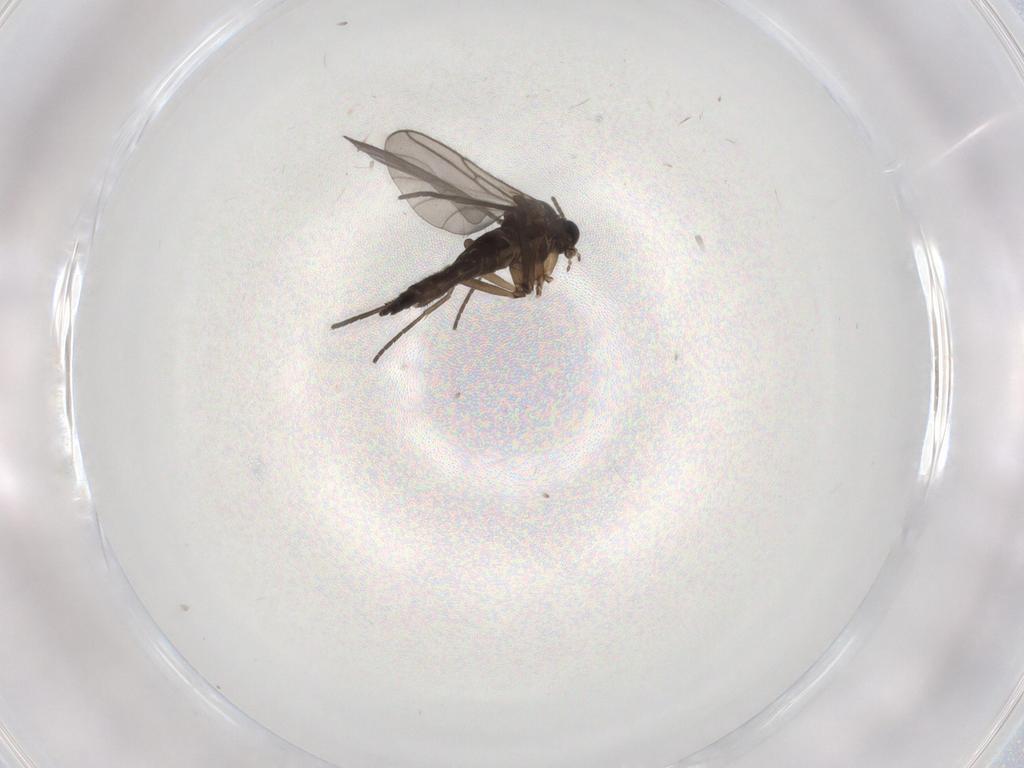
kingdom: Animalia
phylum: Arthropoda
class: Insecta
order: Diptera
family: Sciaridae
